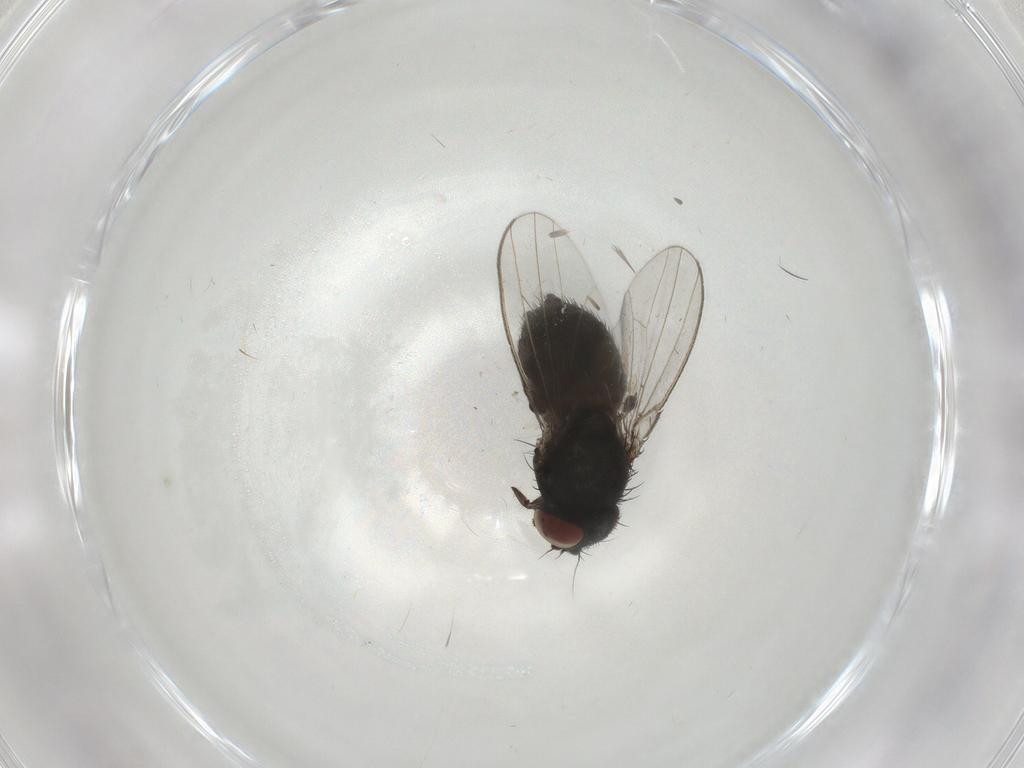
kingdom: Animalia
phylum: Arthropoda
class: Insecta
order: Diptera
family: Milichiidae
